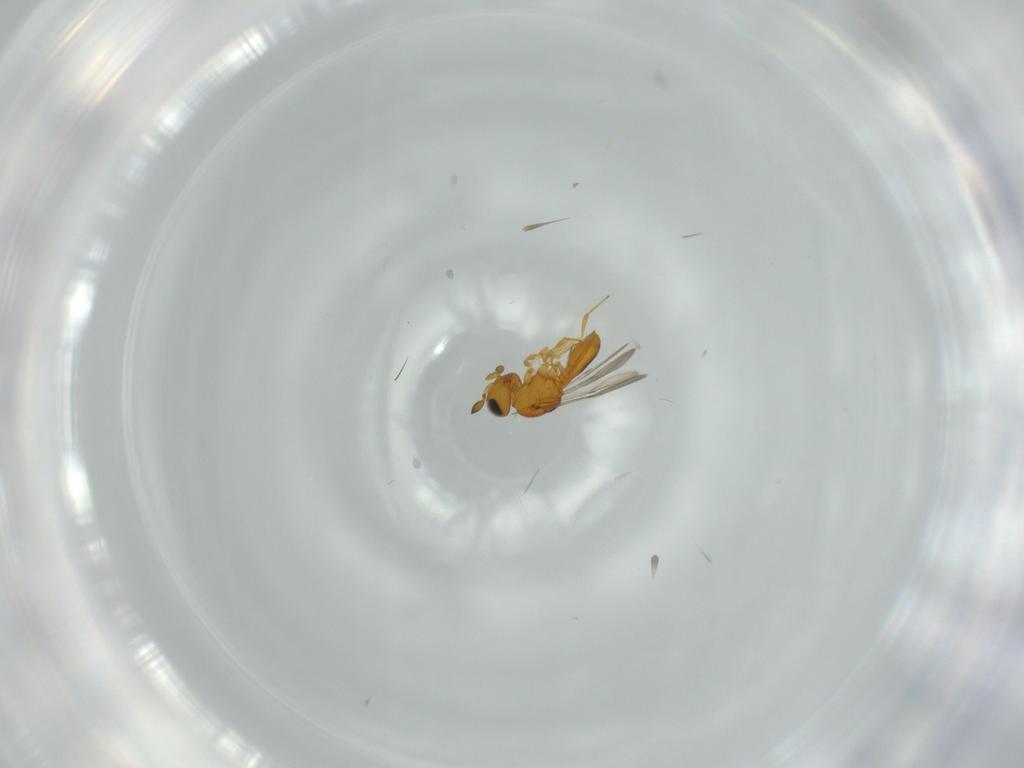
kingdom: Animalia
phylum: Arthropoda
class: Insecta
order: Hymenoptera
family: Scelionidae
